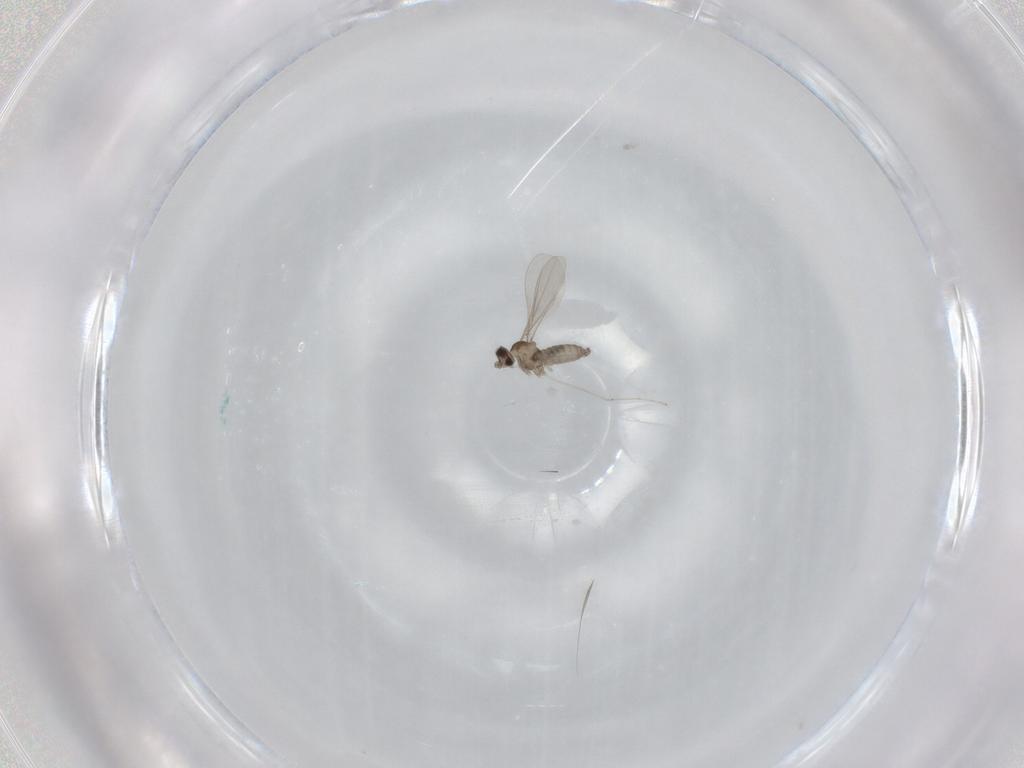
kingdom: Animalia
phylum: Arthropoda
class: Insecta
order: Diptera
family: Cecidomyiidae
